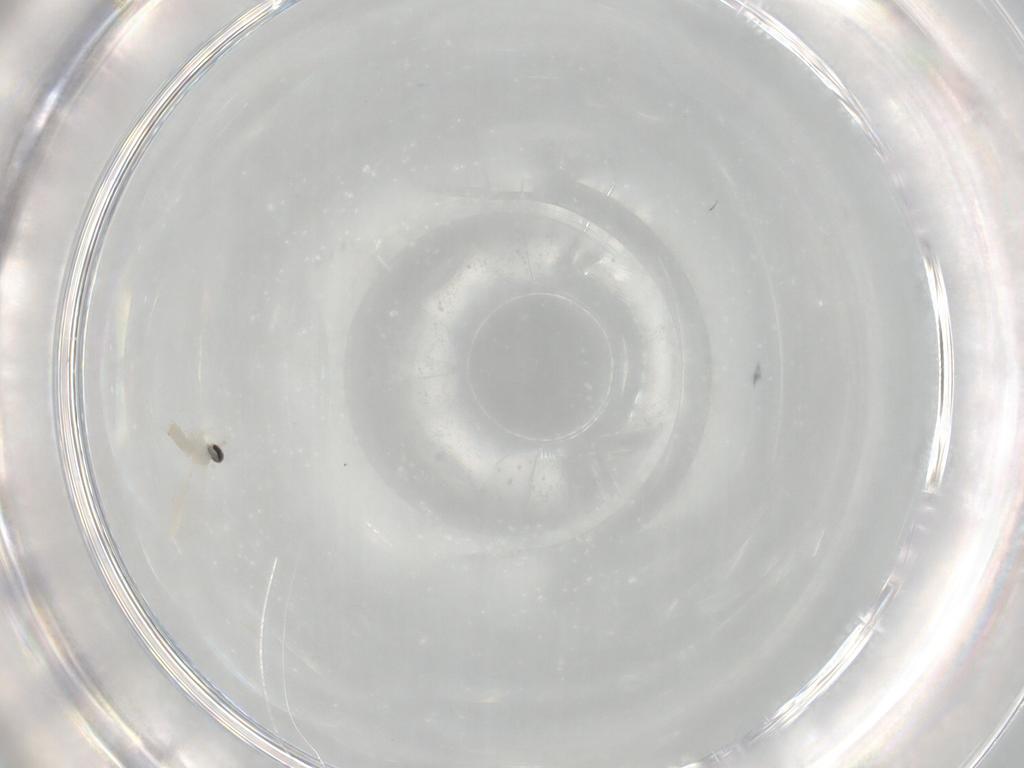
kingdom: Animalia
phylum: Arthropoda
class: Insecta
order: Diptera
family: Cecidomyiidae
